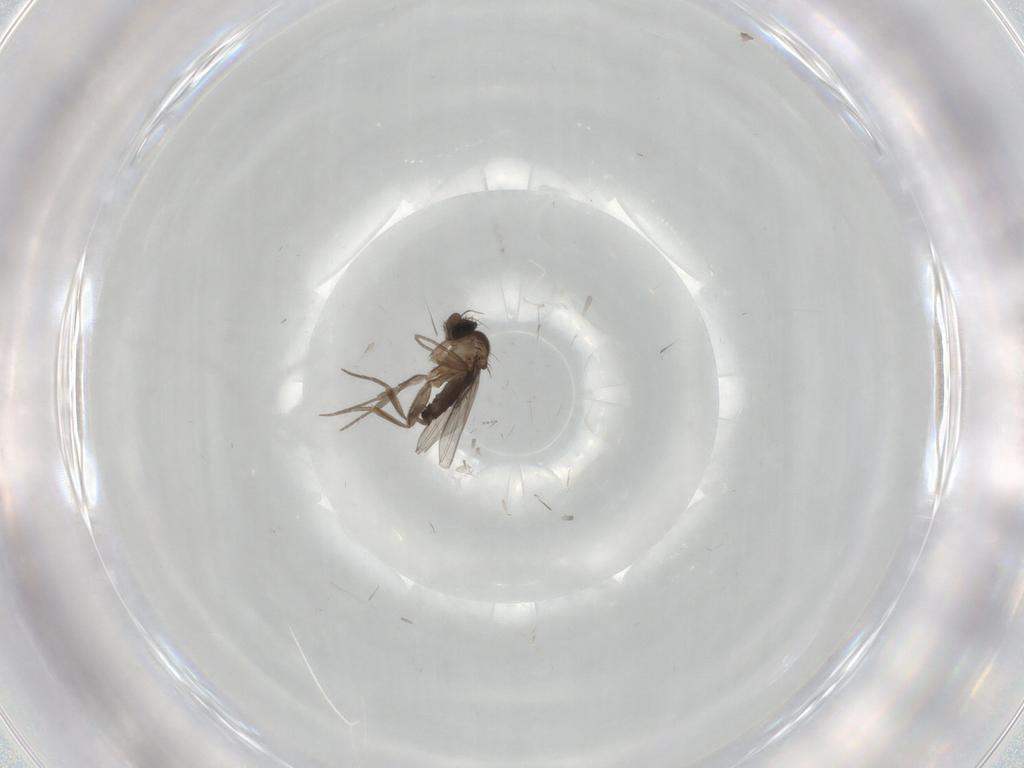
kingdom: Animalia
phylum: Arthropoda
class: Insecta
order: Diptera
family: Cecidomyiidae
